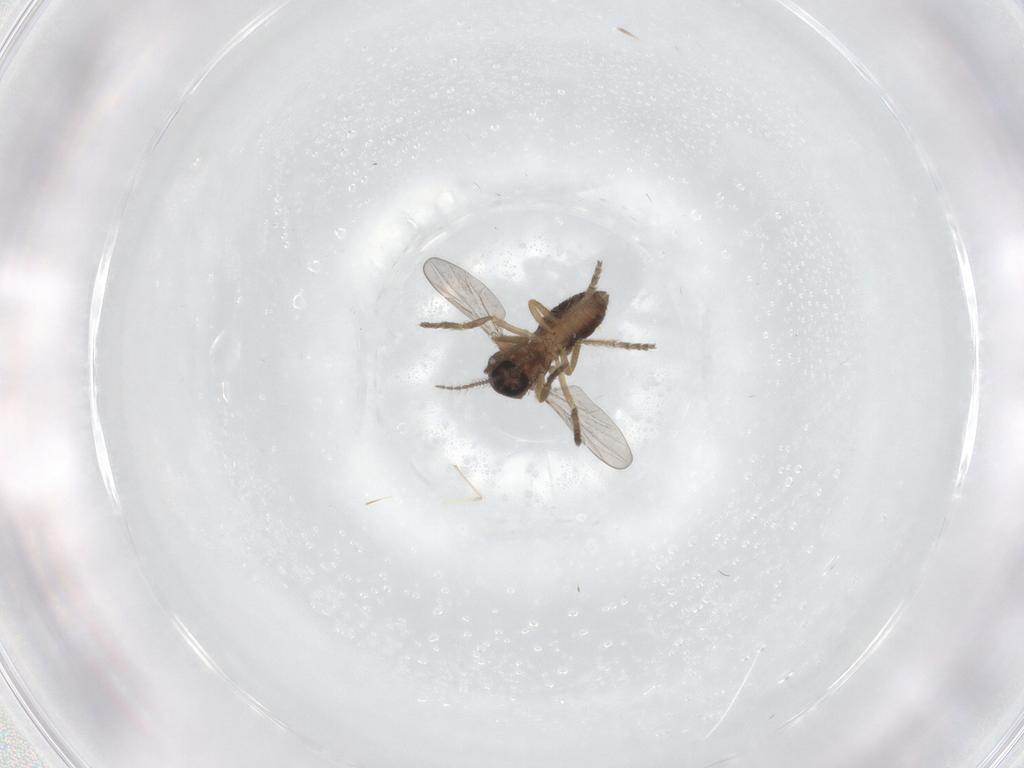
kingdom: Animalia
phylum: Arthropoda
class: Insecta
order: Diptera
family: Ceratopogonidae
